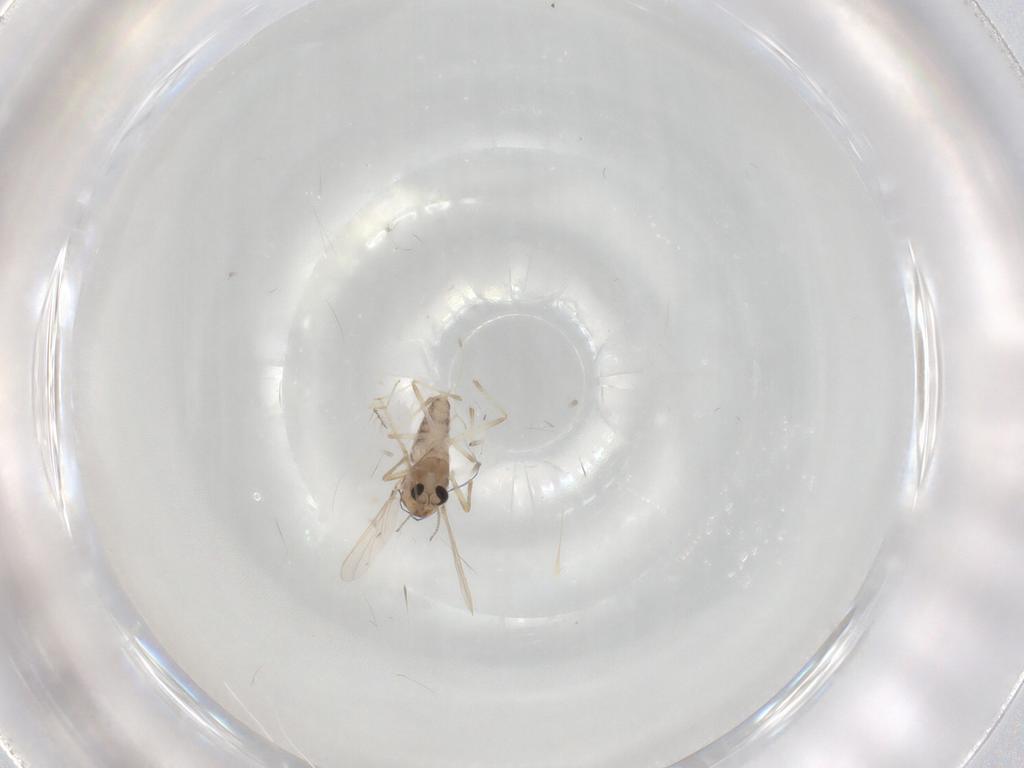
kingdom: Animalia
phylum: Arthropoda
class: Insecta
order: Diptera
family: Chironomidae
